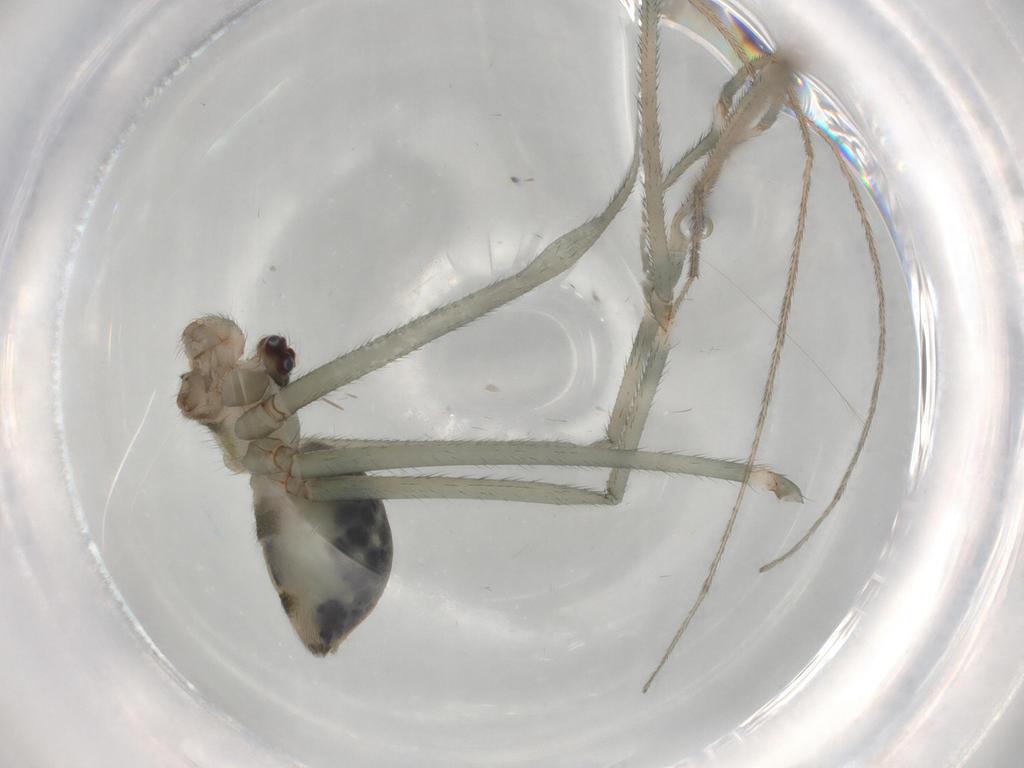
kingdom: Animalia
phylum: Arthropoda
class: Arachnida
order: Araneae
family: Pholcidae
